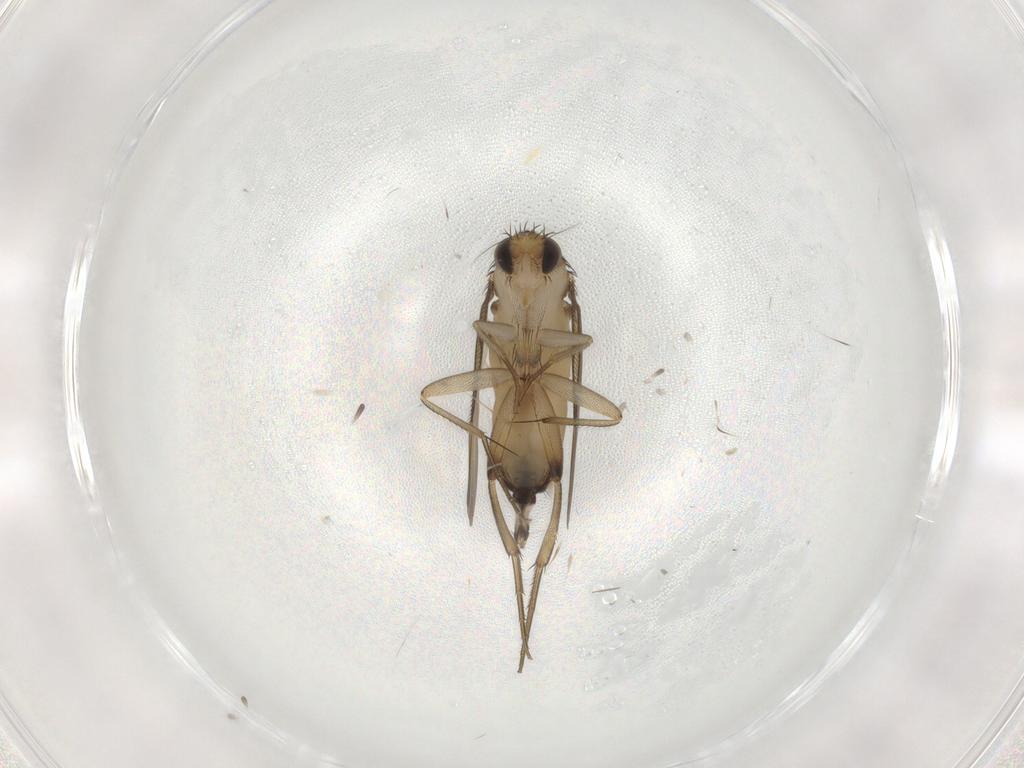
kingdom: Animalia
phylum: Arthropoda
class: Insecta
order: Diptera
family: Phoridae
